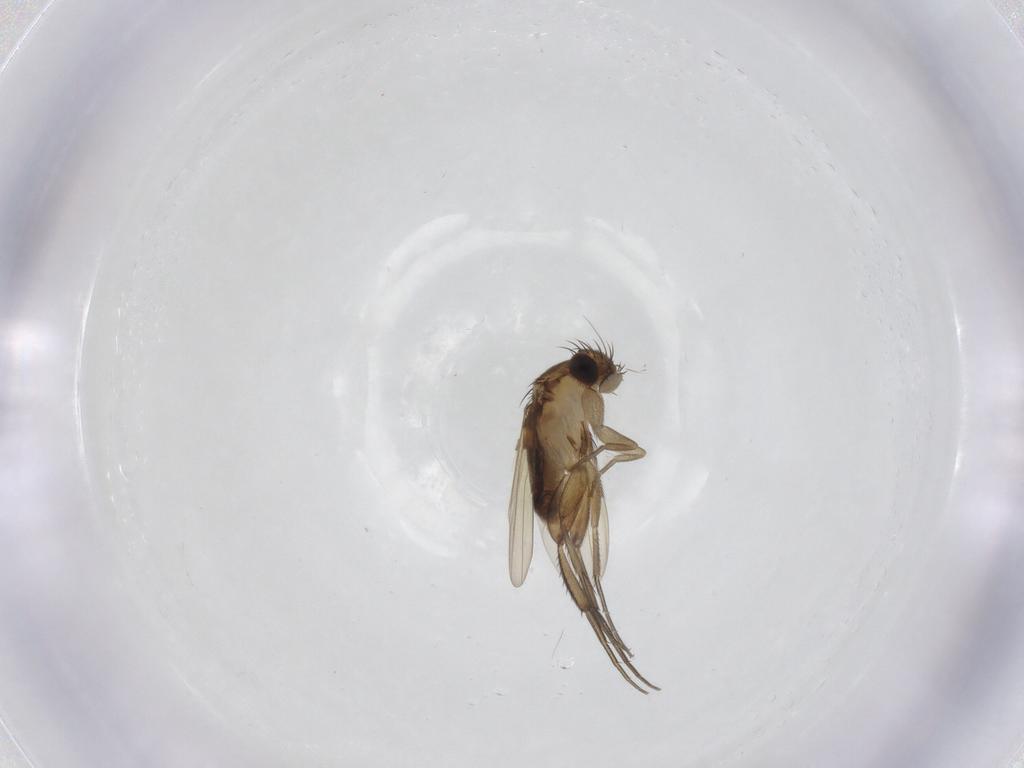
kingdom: Animalia
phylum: Arthropoda
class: Insecta
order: Diptera
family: Phoridae
